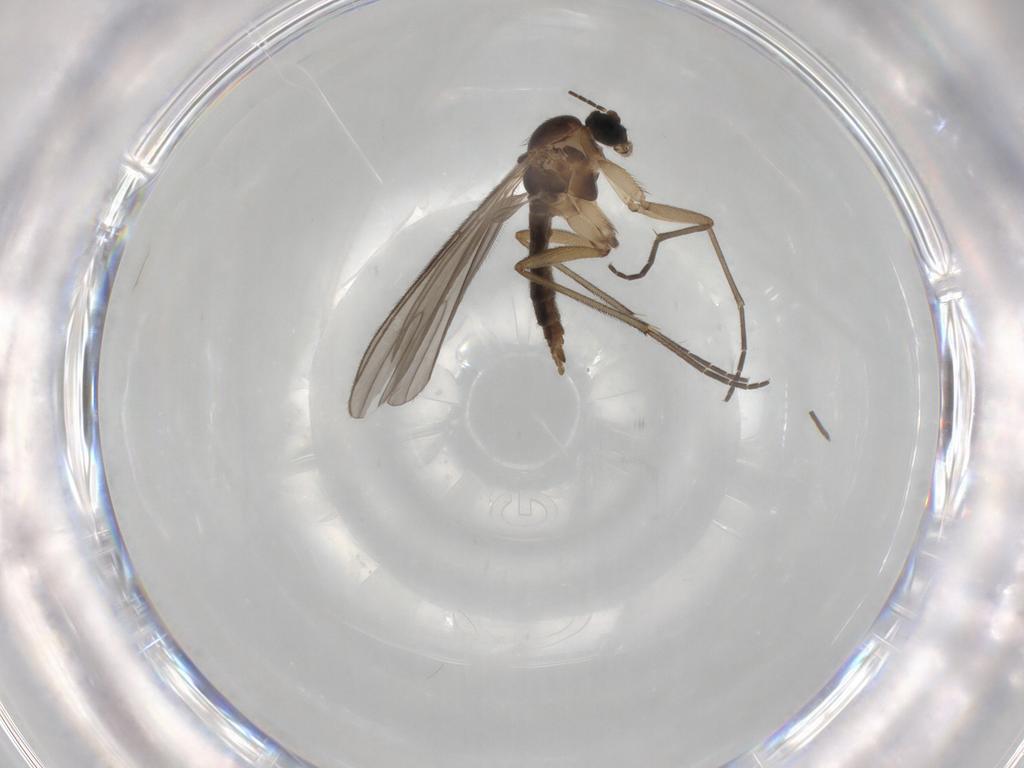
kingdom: Animalia
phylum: Arthropoda
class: Insecta
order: Diptera
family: Sciaridae
